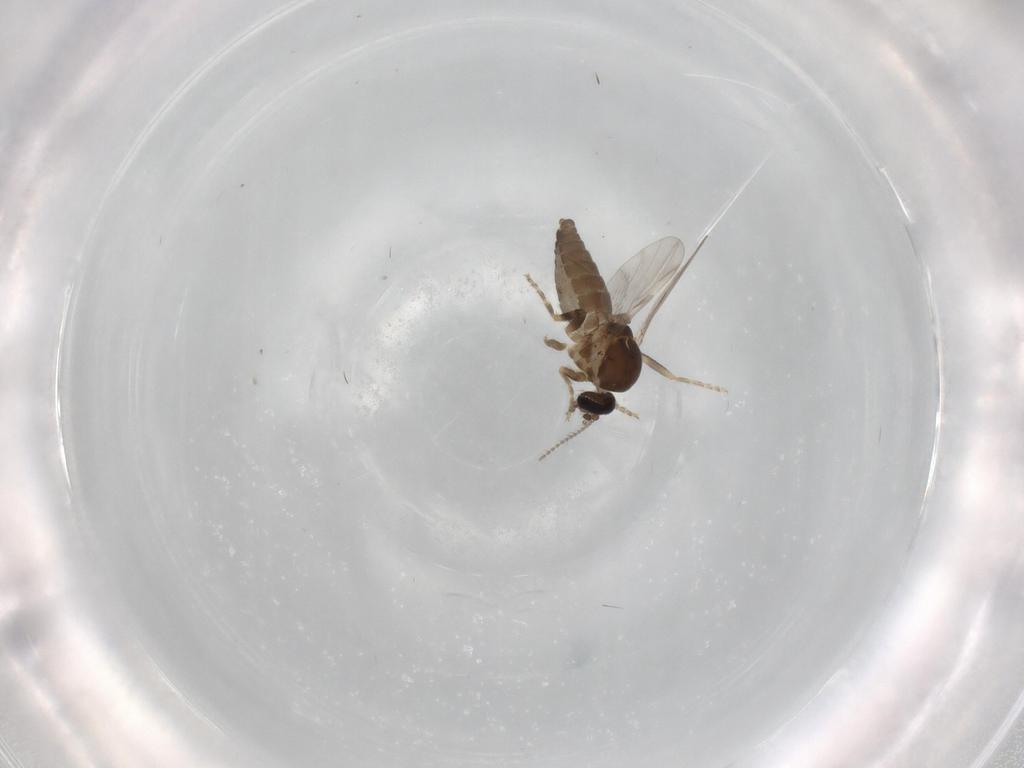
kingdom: Animalia
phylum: Arthropoda
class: Insecta
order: Diptera
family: Ceratopogonidae
